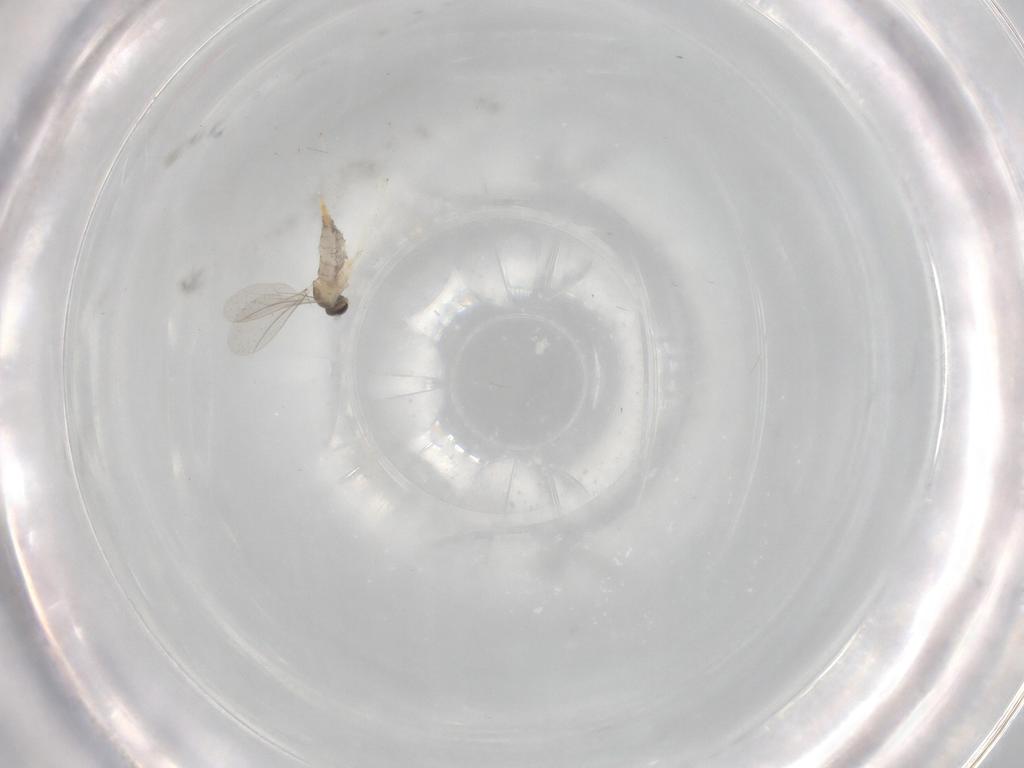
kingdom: Animalia
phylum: Arthropoda
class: Insecta
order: Diptera
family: Cecidomyiidae
